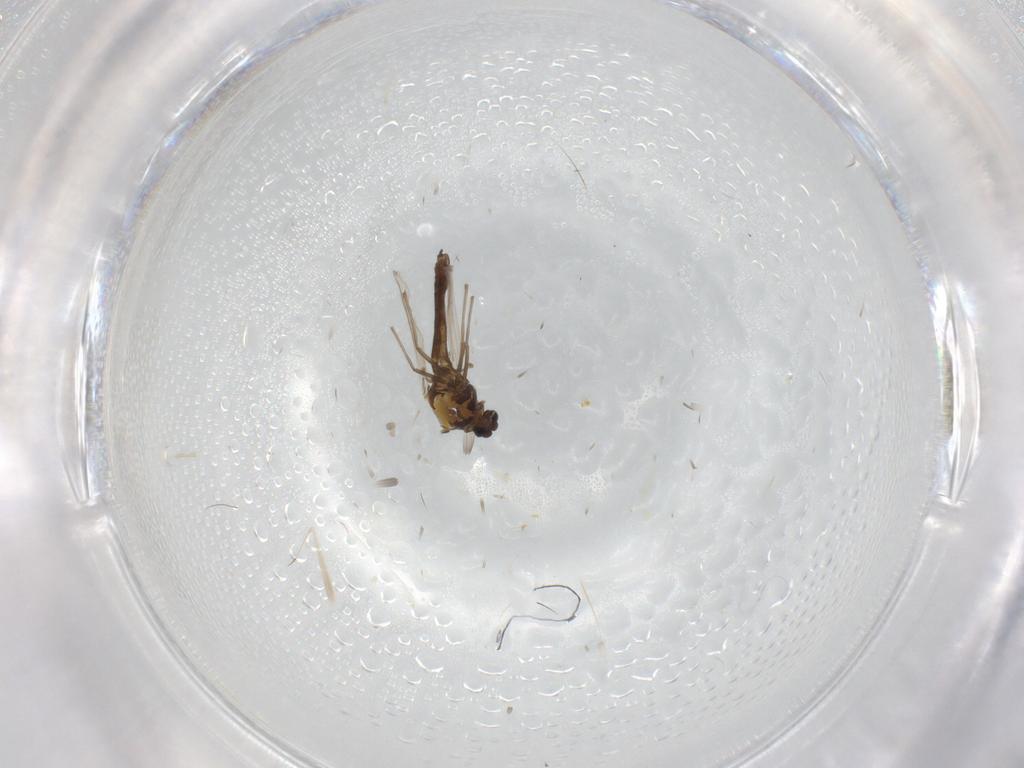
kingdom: Animalia
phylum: Arthropoda
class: Insecta
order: Diptera
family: Chironomidae
